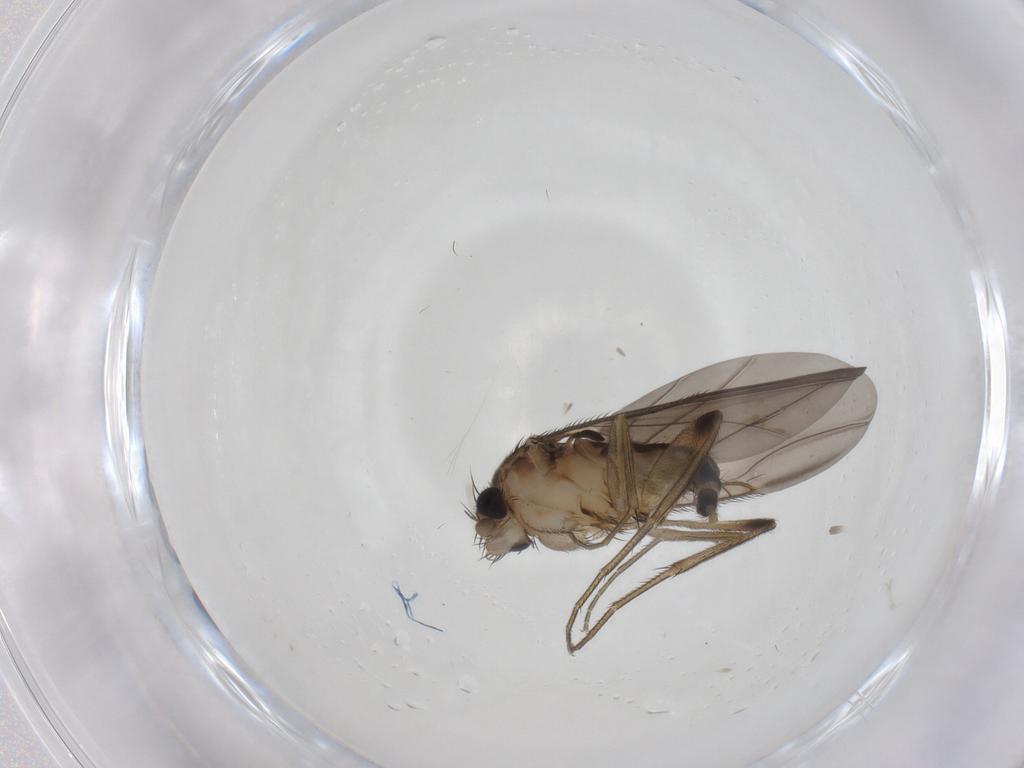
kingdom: Animalia
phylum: Arthropoda
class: Insecta
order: Diptera
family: Phoridae
